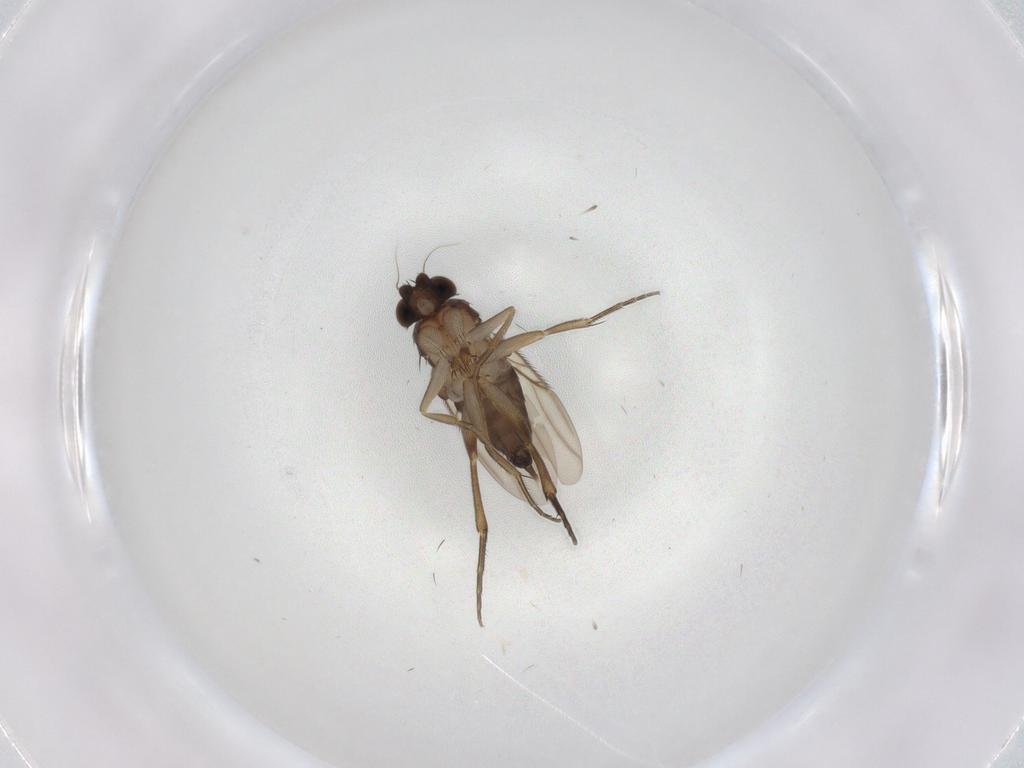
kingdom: Animalia
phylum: Arthropoda
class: Insecta
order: Diptera
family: Phoridae
